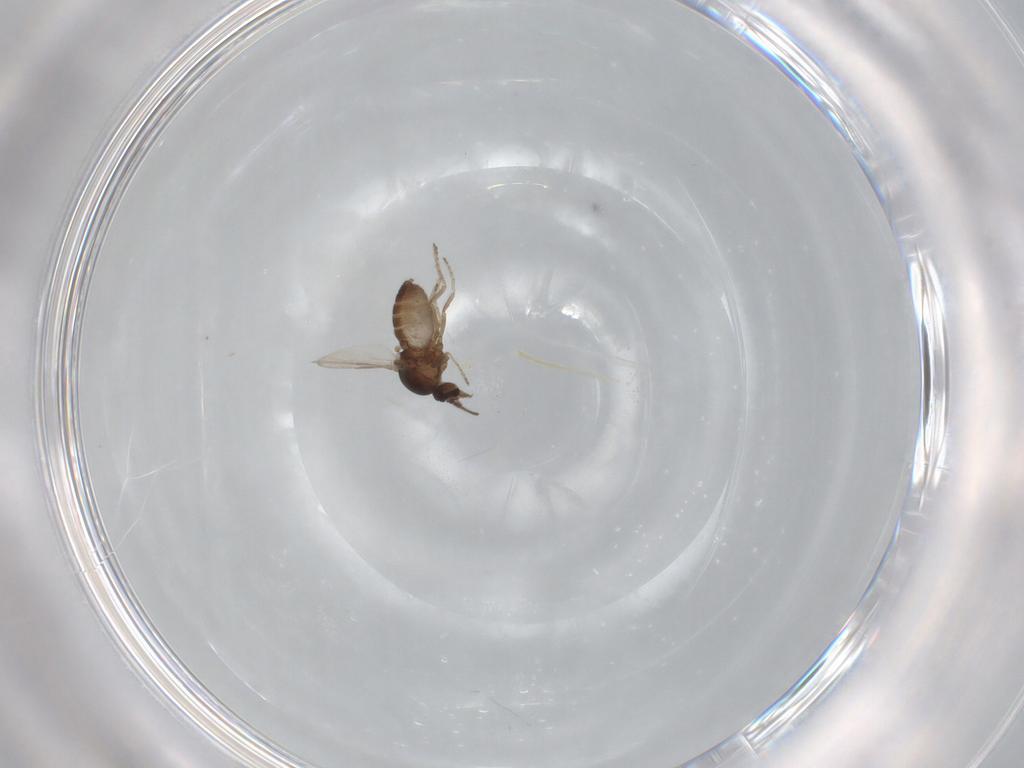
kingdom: Animalia
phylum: Arthropoda
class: Insecta
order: Diptera
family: Ceratopogonidae
